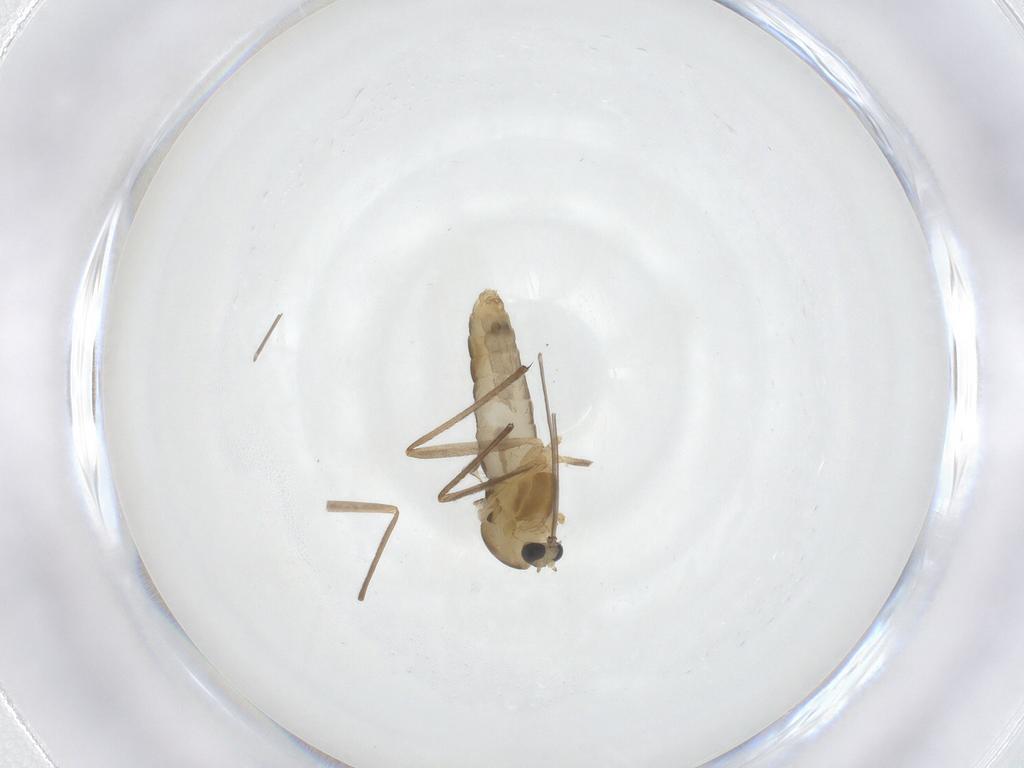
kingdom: Animalia
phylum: Arthropoda
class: Insecta
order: Diptera
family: Chironomidae
